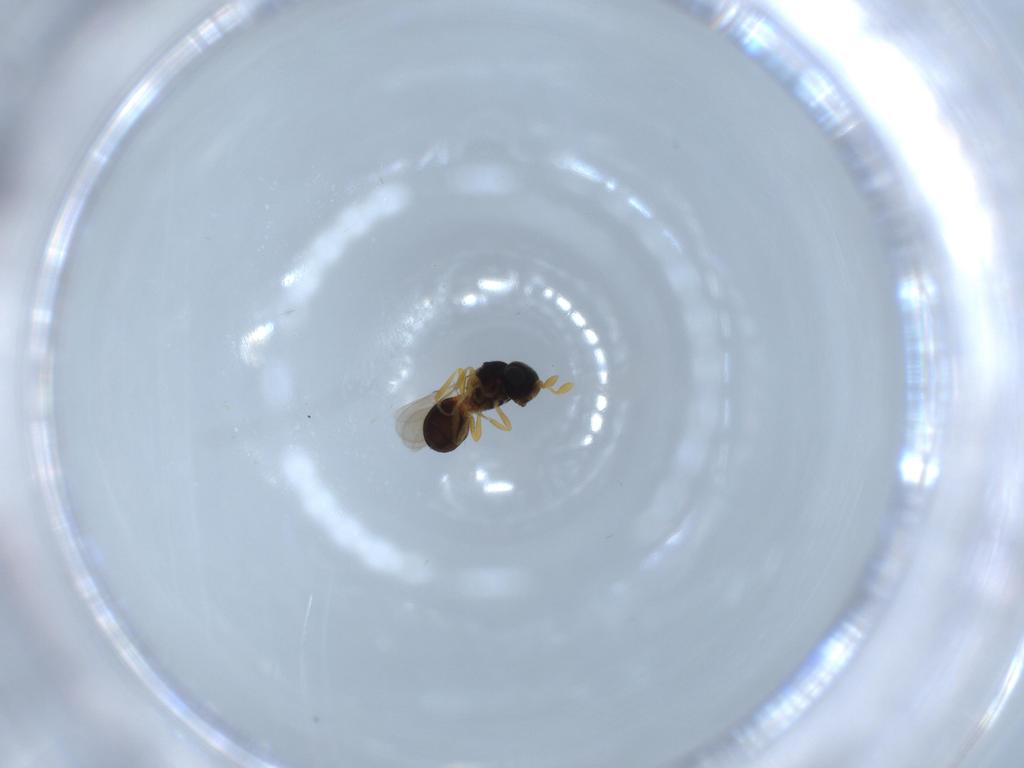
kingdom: Animalia
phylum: Arthropoda
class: Insecta
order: Hymenoptera
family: Scelionidae
